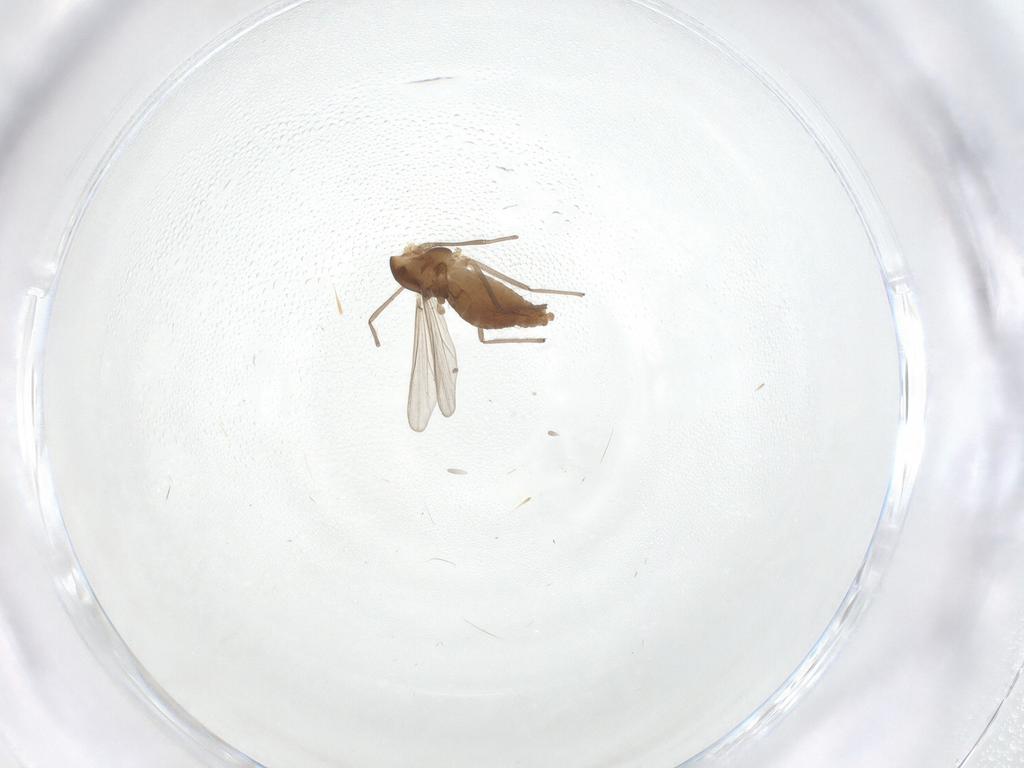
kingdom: Animalia
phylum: Arthropoda
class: Insecta
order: Diptera
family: Chironomidae
